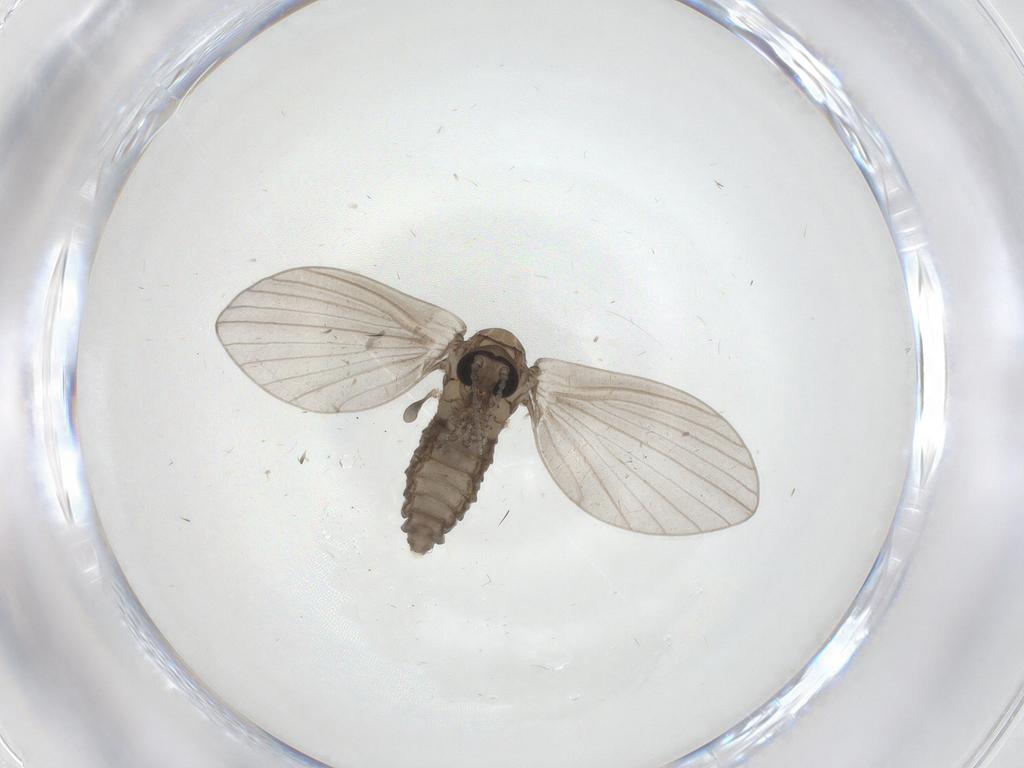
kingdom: Animalia
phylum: Arthropoda
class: Insecta
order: Diptera
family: Psychodidae
